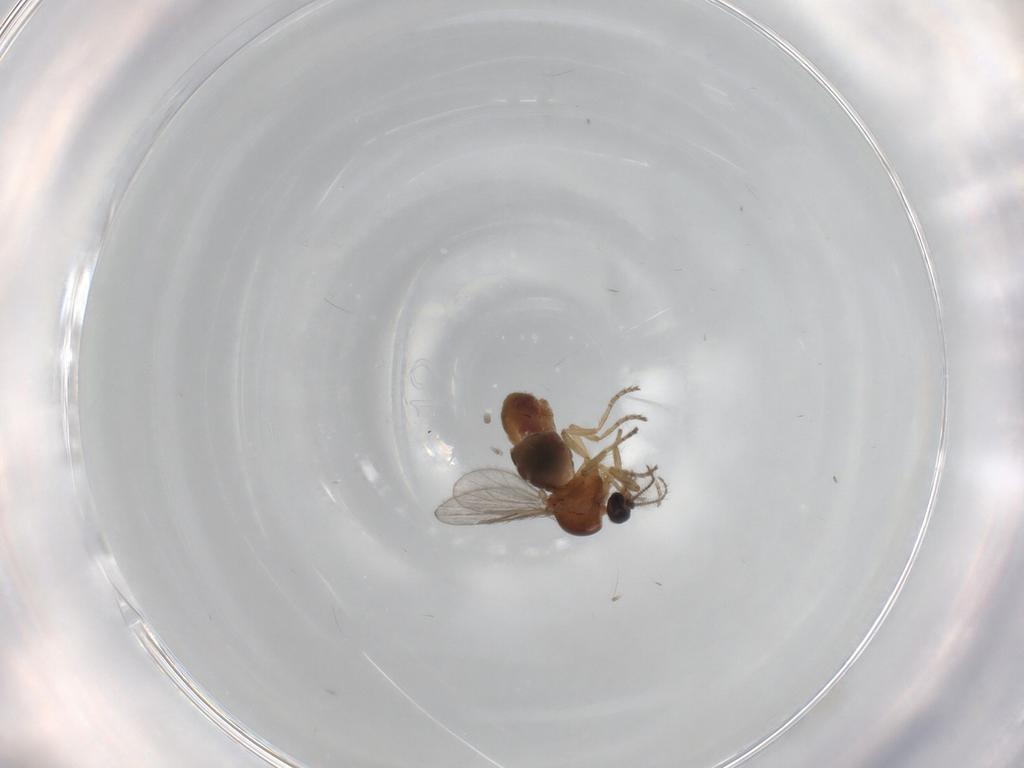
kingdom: Animalia
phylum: Arthropoda
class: Insecta
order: Diptera
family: Ceratopogonidae
